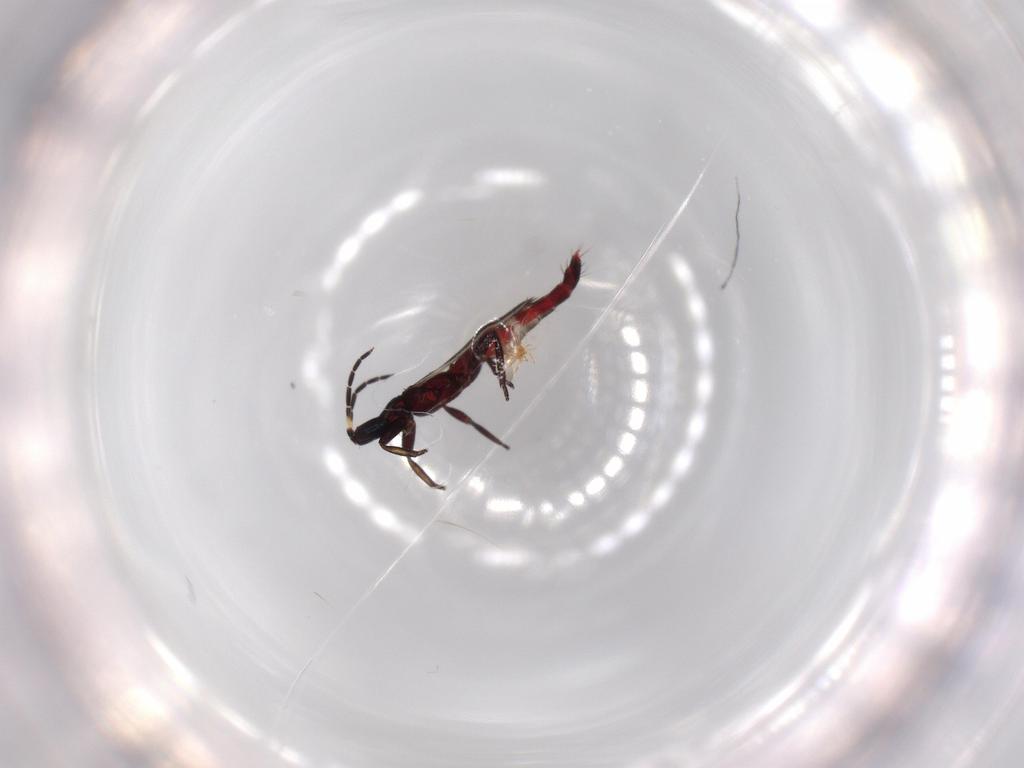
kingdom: Animalia
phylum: Arthropoda
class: Insecta
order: Thysanoptera
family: Aeolothripidae
